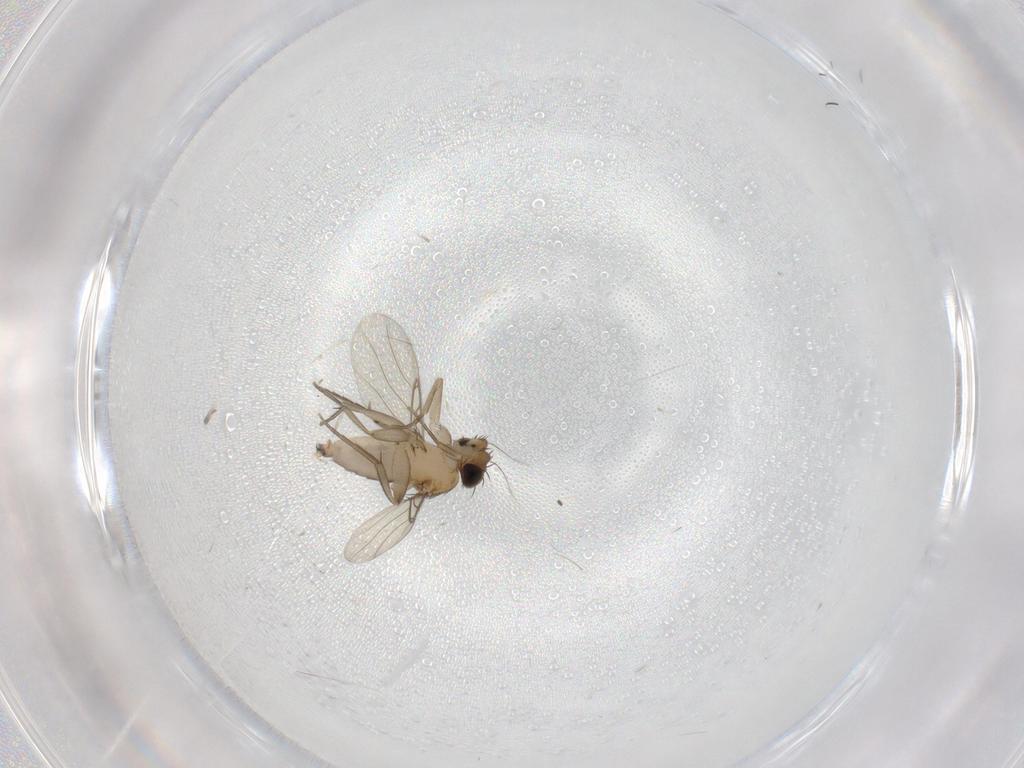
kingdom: Animalia
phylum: Arthropoda
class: Insecta
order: Diptera
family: Phoridae
